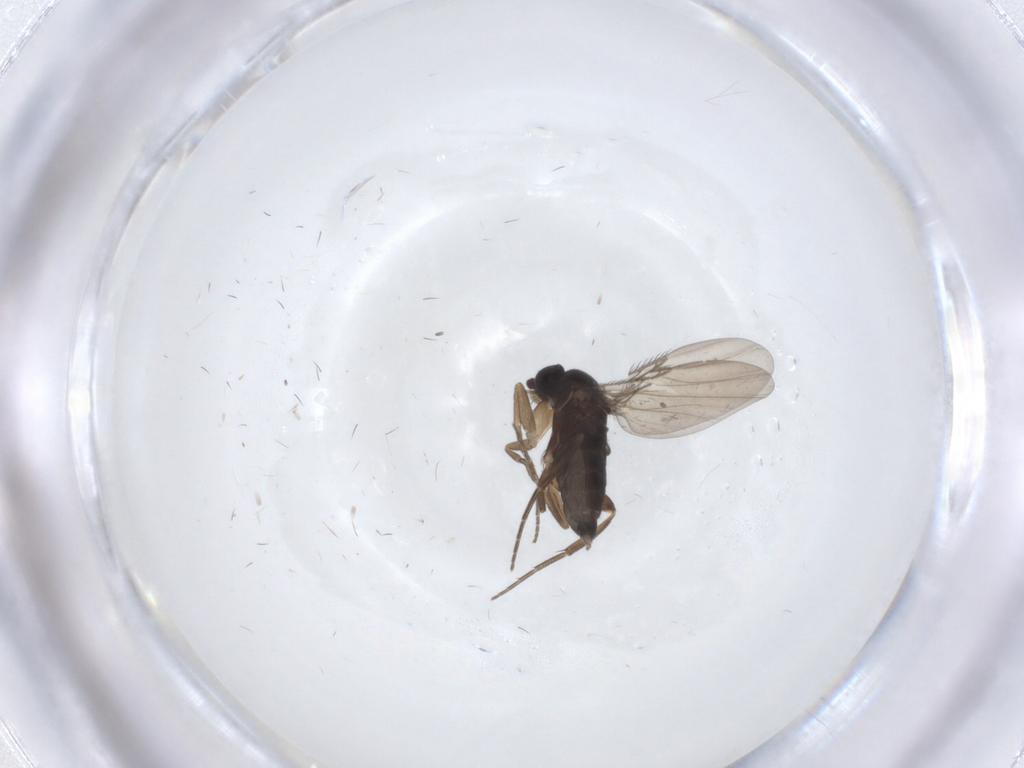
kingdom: Animalia
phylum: Arthropoda
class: Insecta
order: Diptera
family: Phoridae
